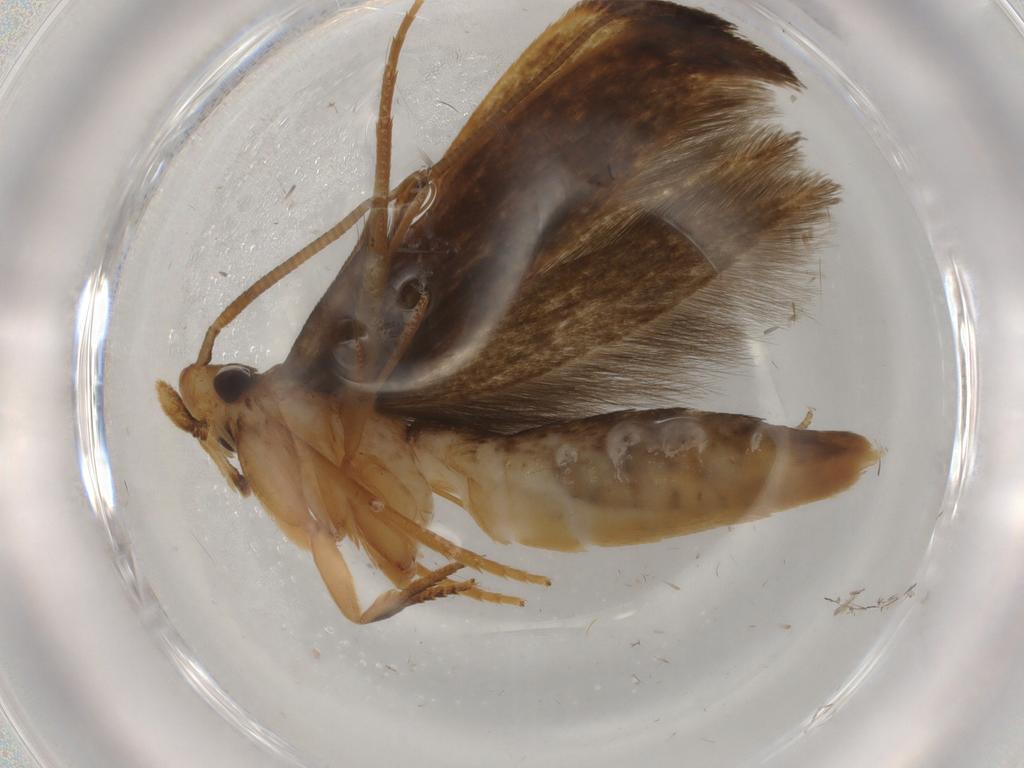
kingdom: Animalia
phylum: Arthropoda
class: Insecta
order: Lepidoptera
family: Tineidae
